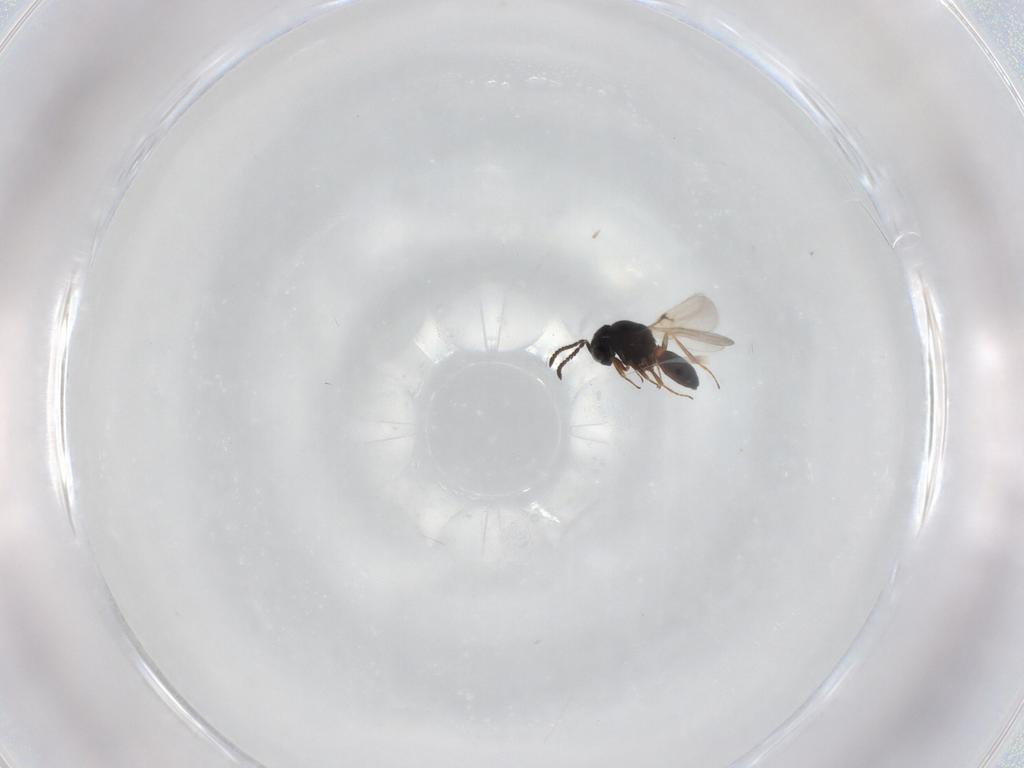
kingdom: Animalia
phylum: Arthropoda
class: Arachnida
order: Araneae
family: Pholcidae
